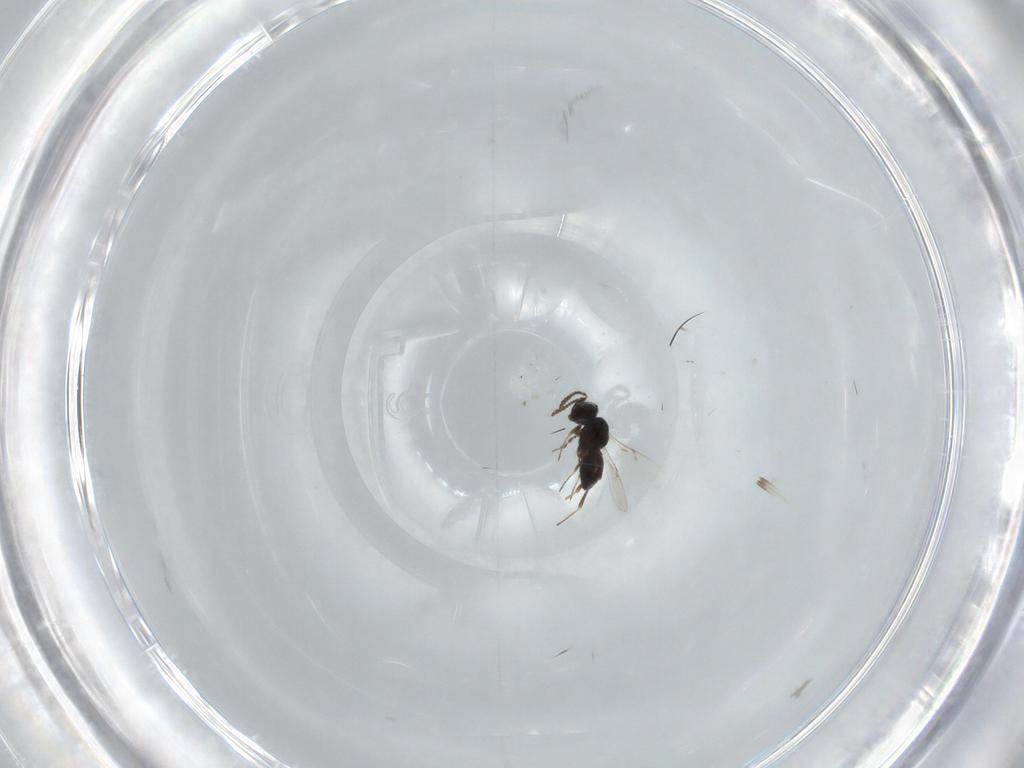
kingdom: Animalia
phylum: Arthropoda
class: Insecta
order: Hymenoptera
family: Scelionidae
